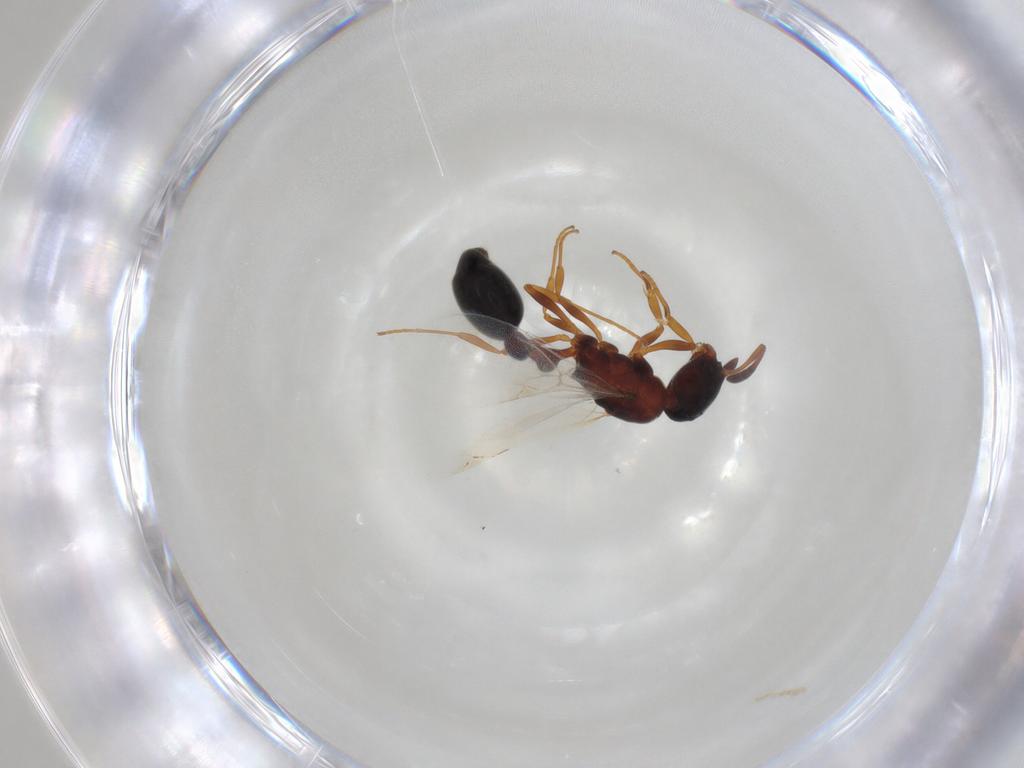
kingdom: Animalia
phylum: Arthropoda
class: Insecta
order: Hymenoptera
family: Formicidae
